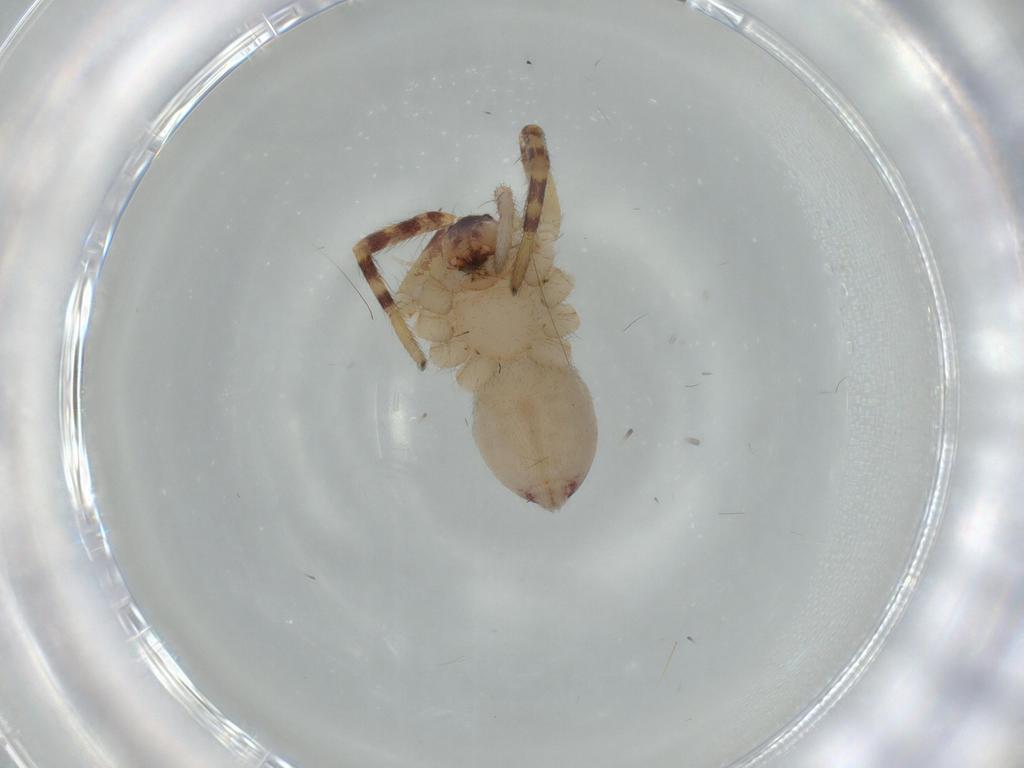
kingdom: Animalia
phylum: Arthropoda
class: Arachnida
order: Araneae
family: Corinnidae
